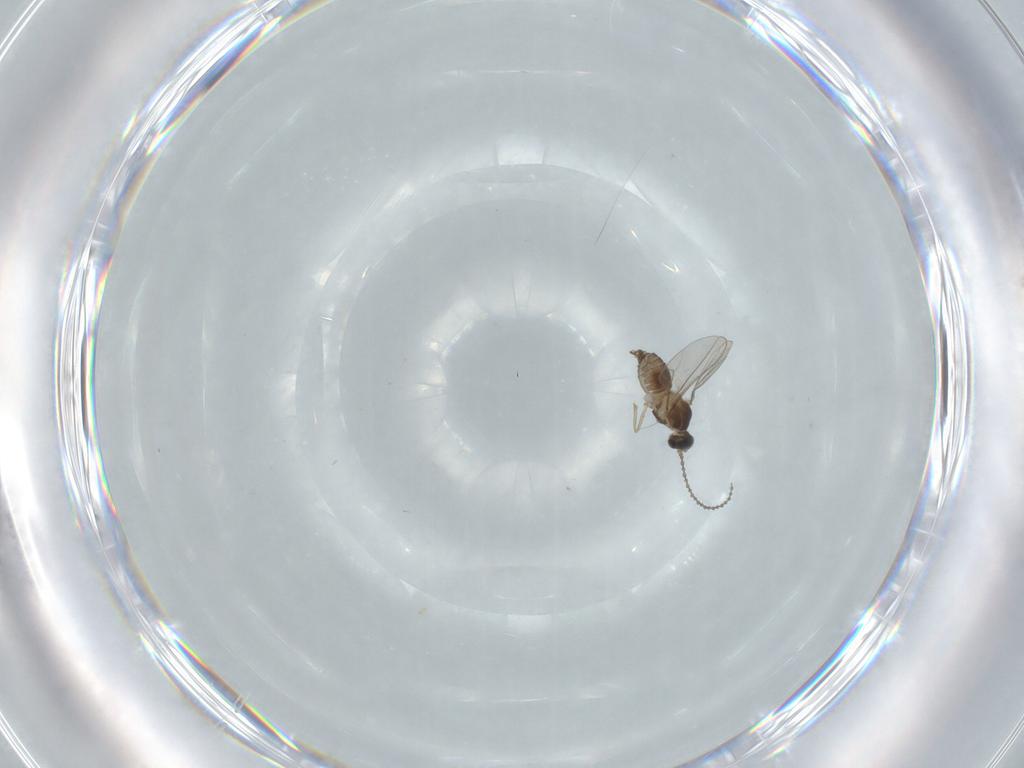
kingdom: Animalia
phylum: Arthropoda
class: Insecta
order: Diptera
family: Cecidomyiidae
